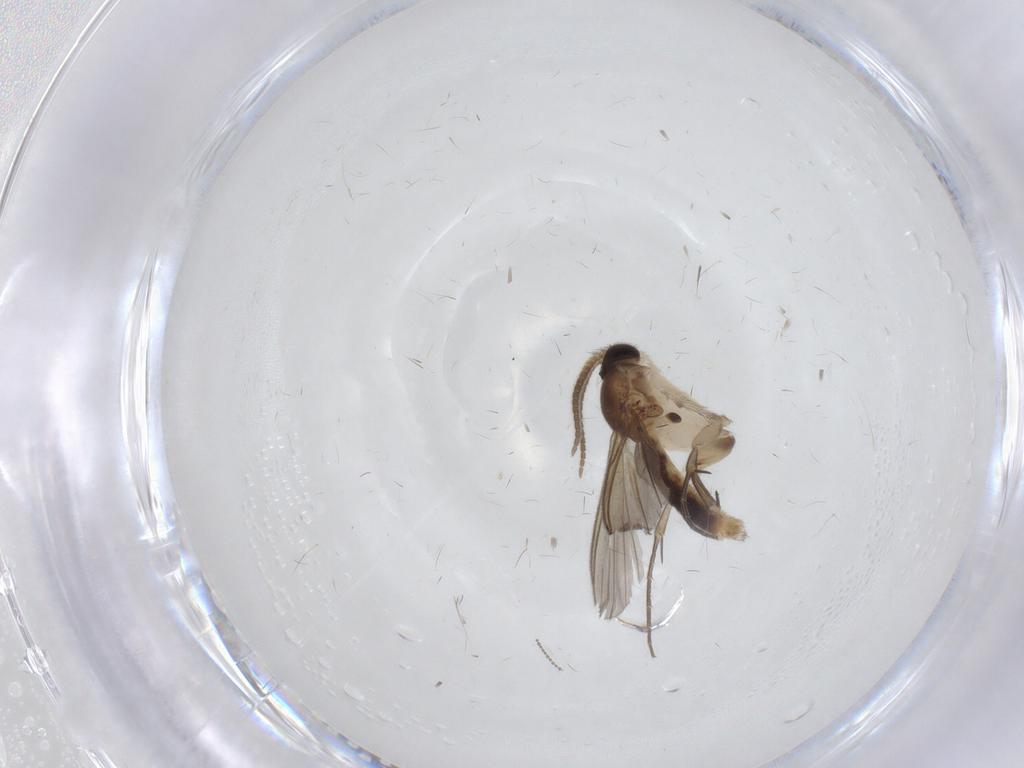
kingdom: Animalia
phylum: Arthropoda
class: Insecta
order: Diptera
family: Mycetophilidae
